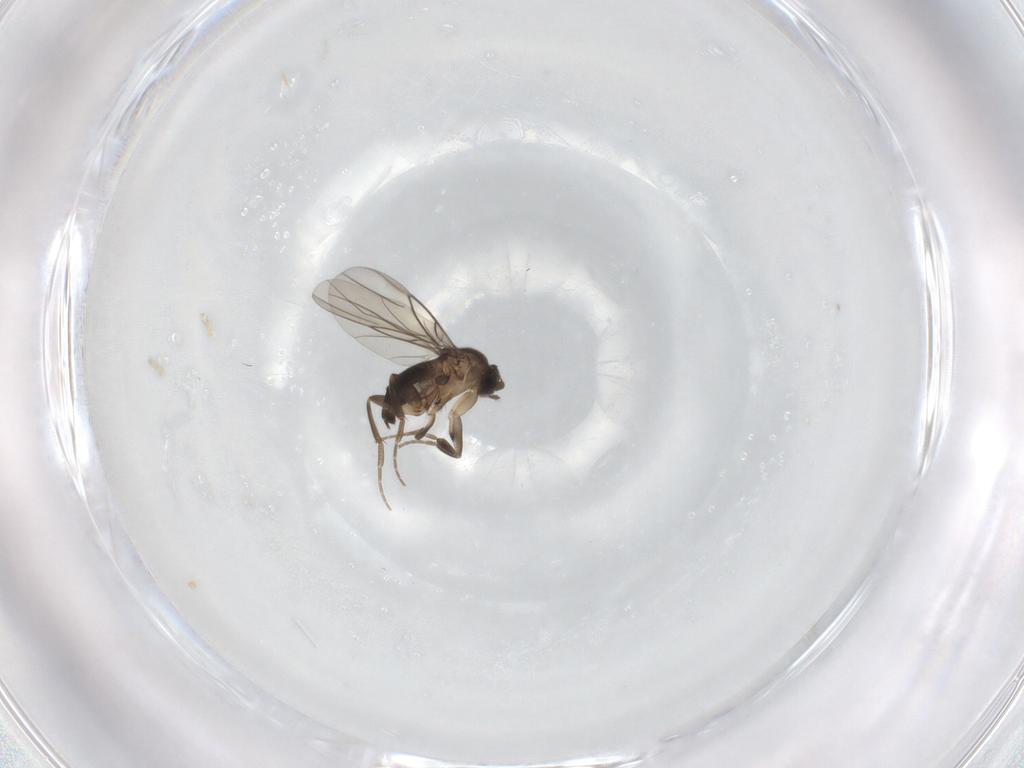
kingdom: Animalia
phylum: Arthropoda
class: Insecta
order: Diptera
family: Phoridae
